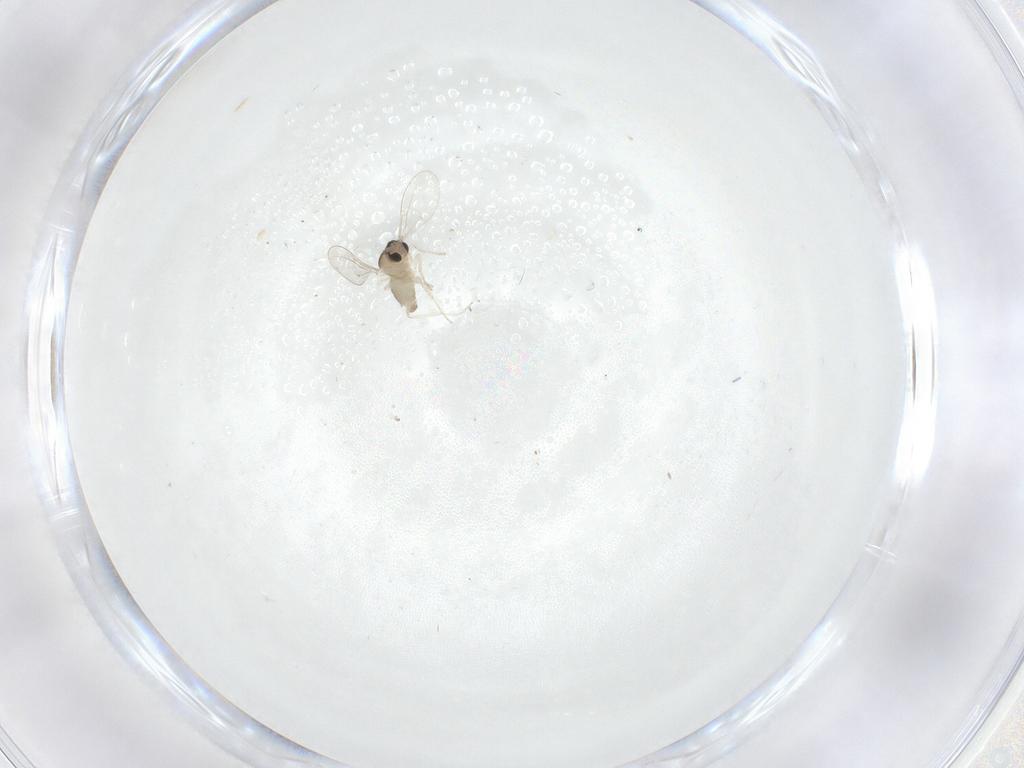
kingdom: Animalia
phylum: Arthropoda
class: Insecta
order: Diptera
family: Cecidomyiidae
